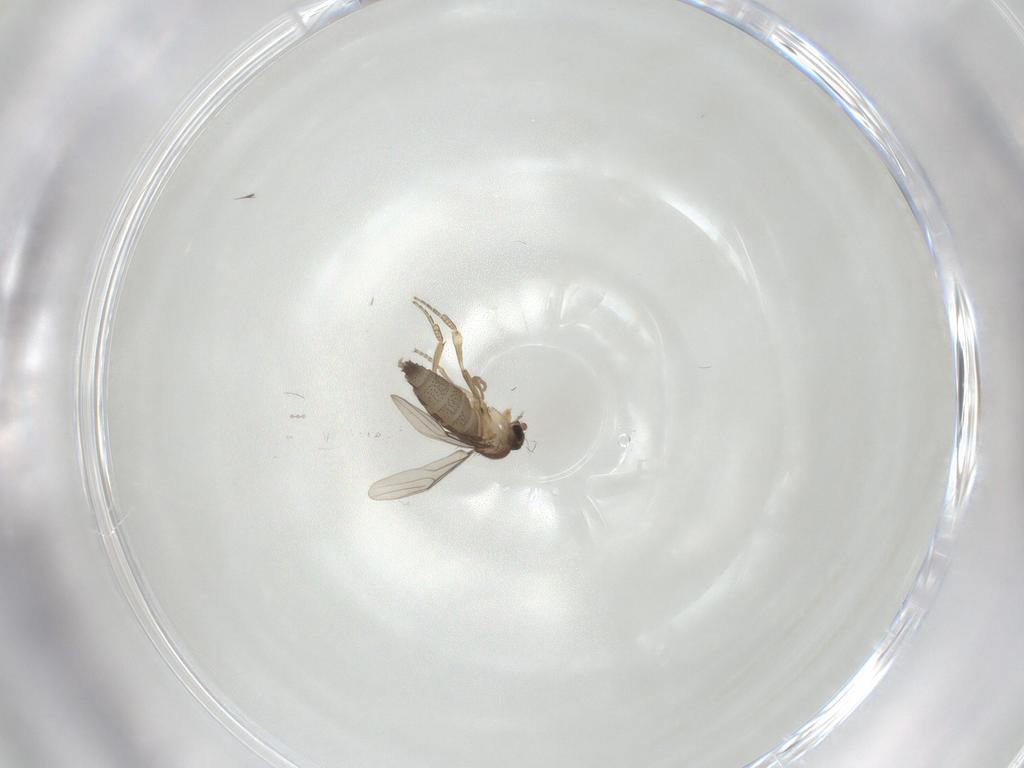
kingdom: Animalia
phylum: Arthropoda
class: Insecta
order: Diptera
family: Phoridae
